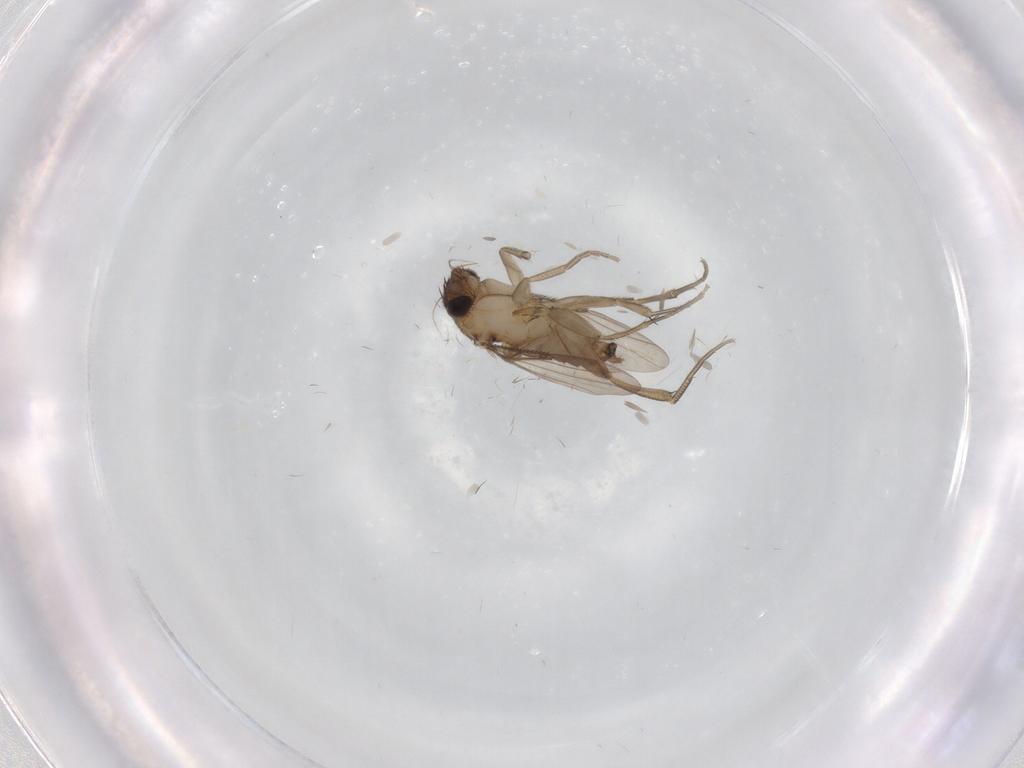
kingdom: Animalia
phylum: Arthropoda
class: Insecta
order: Diptera
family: Phoridae
